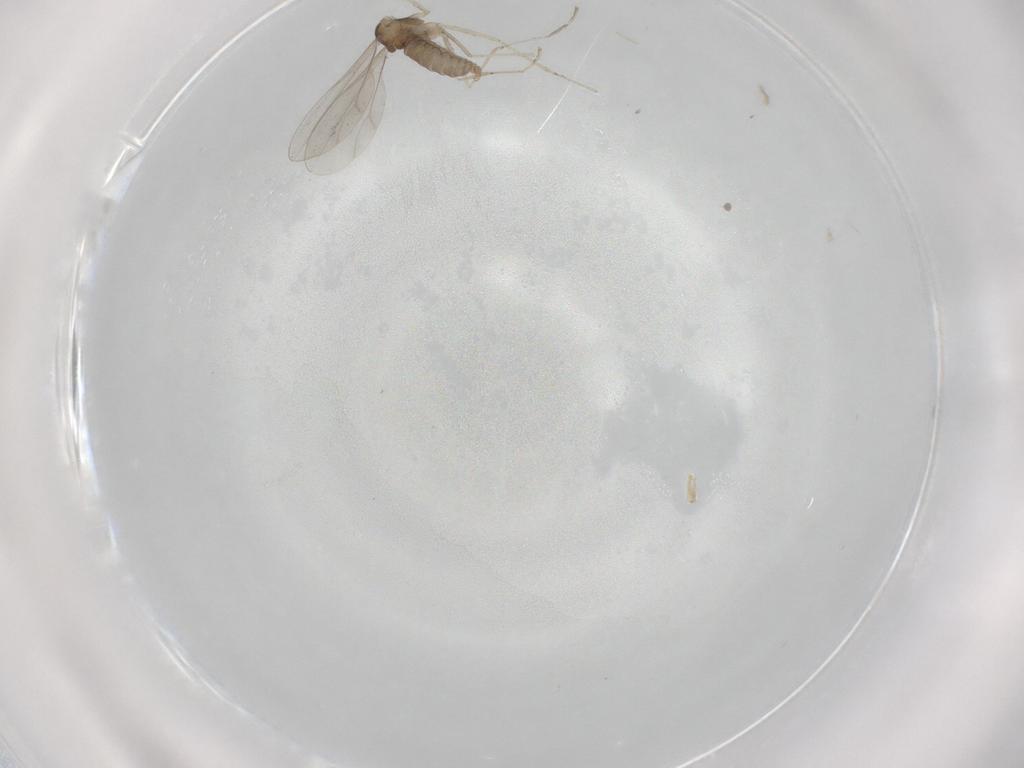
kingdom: Animalia
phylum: Arthropoda
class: Insecta
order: Diptera
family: Cecidomyiidae
